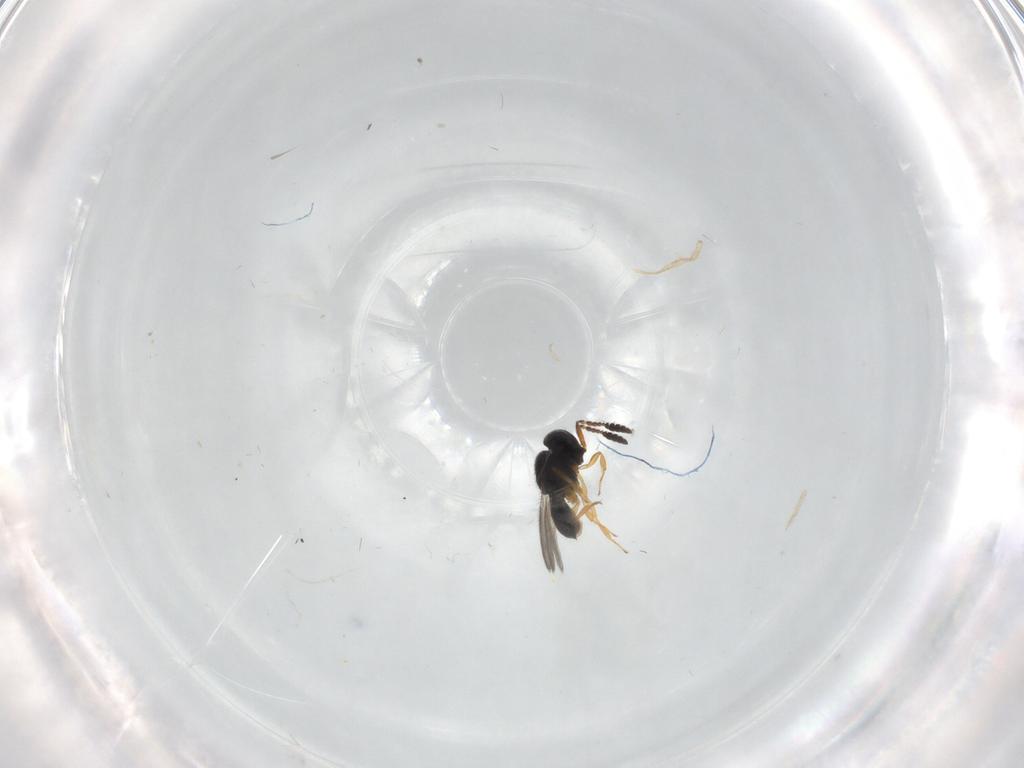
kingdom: Animalia
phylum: Arthropoda
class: Insecta
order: Hymenoptera
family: Scelionidae
